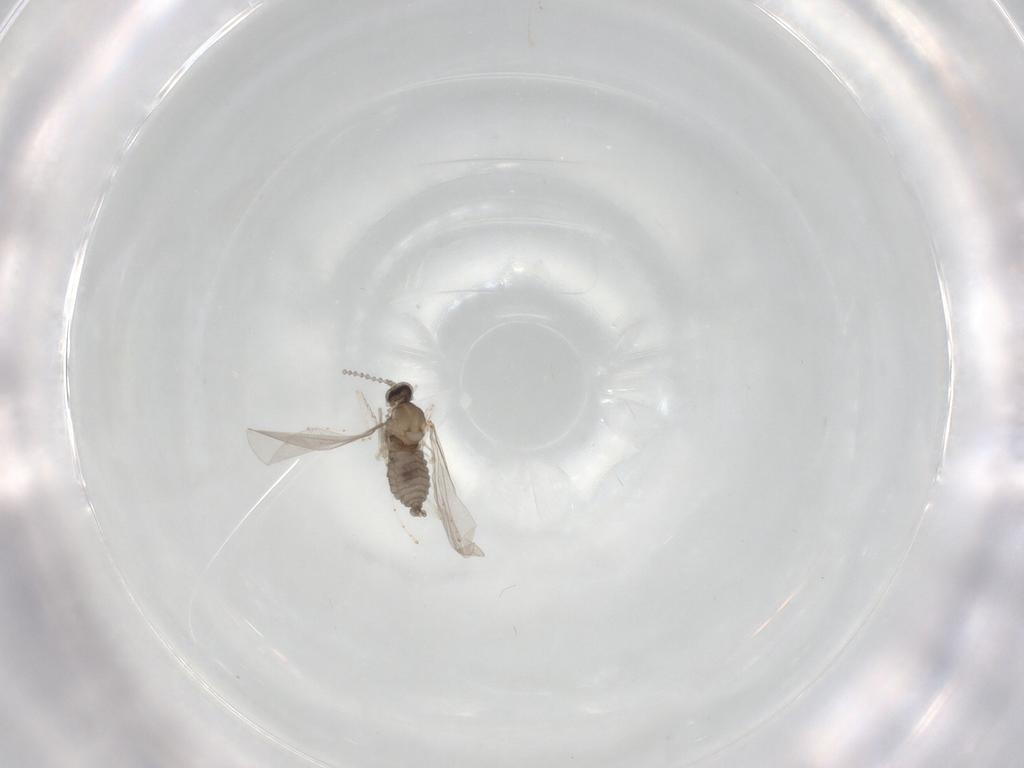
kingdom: Animalia
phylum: Arthropoda
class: Insecta
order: Diptera
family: Cecidomyiidae
